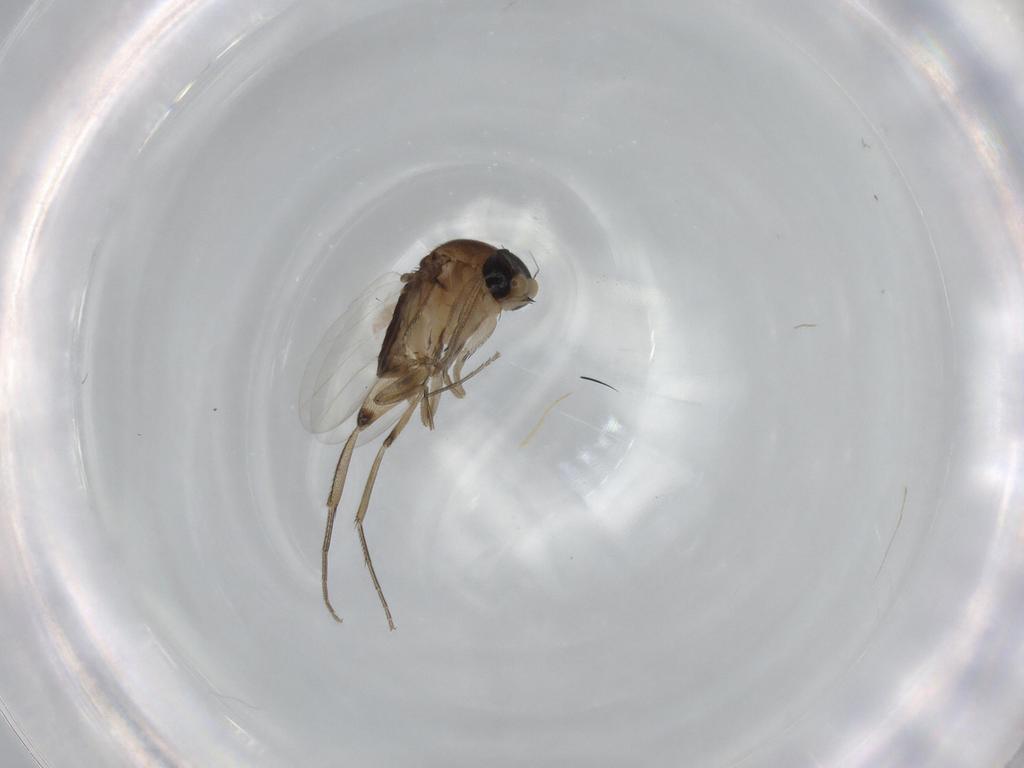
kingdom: Animalia
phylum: Arthropoda
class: Insecta
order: Diptera
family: Phoridae
